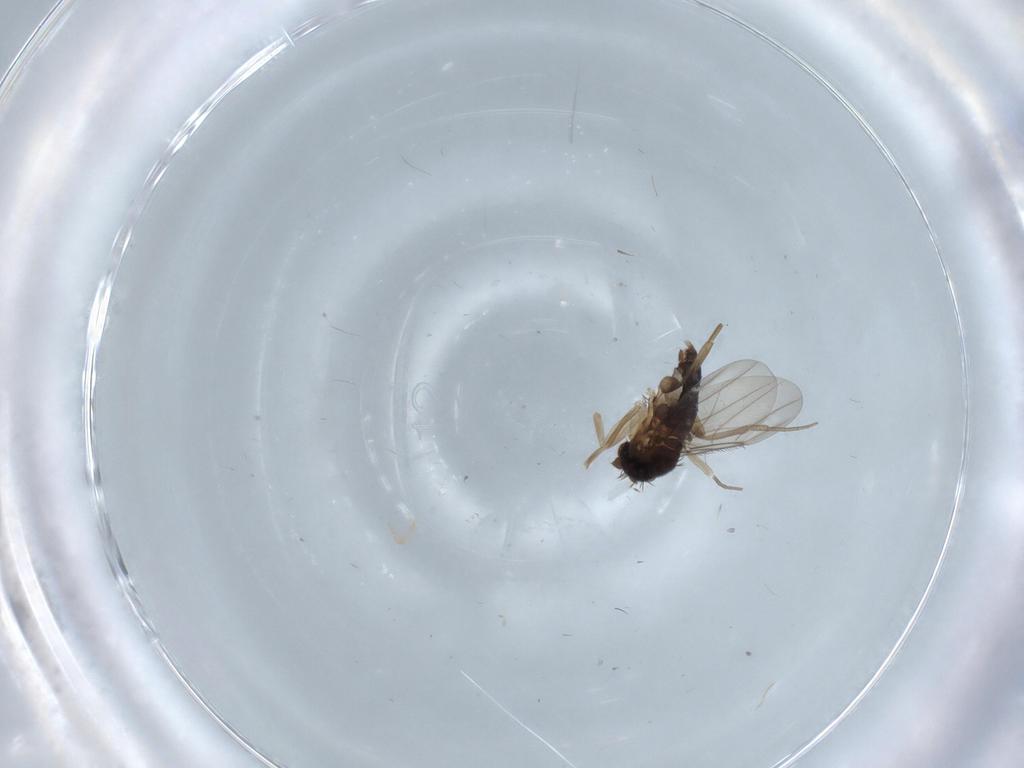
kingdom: Animalia
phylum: Arthropoda
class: Insecta
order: Diptera
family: Phoridae
